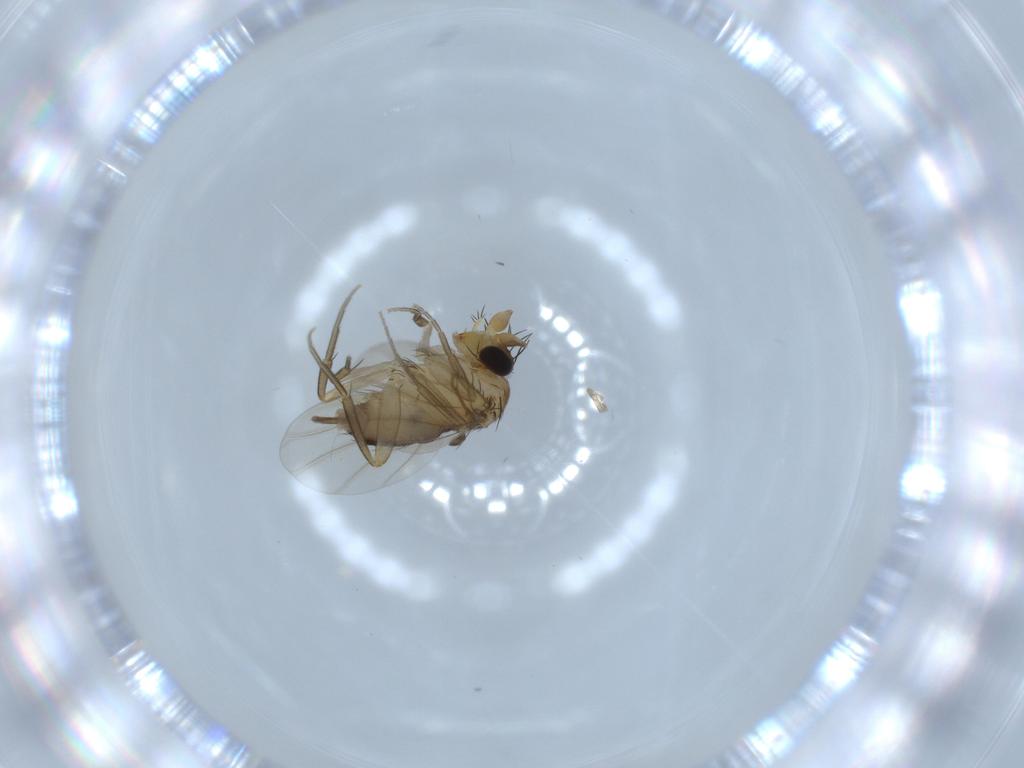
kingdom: Animalia
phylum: Arthropoda
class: Insecta
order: Diptera
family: Phoridae
